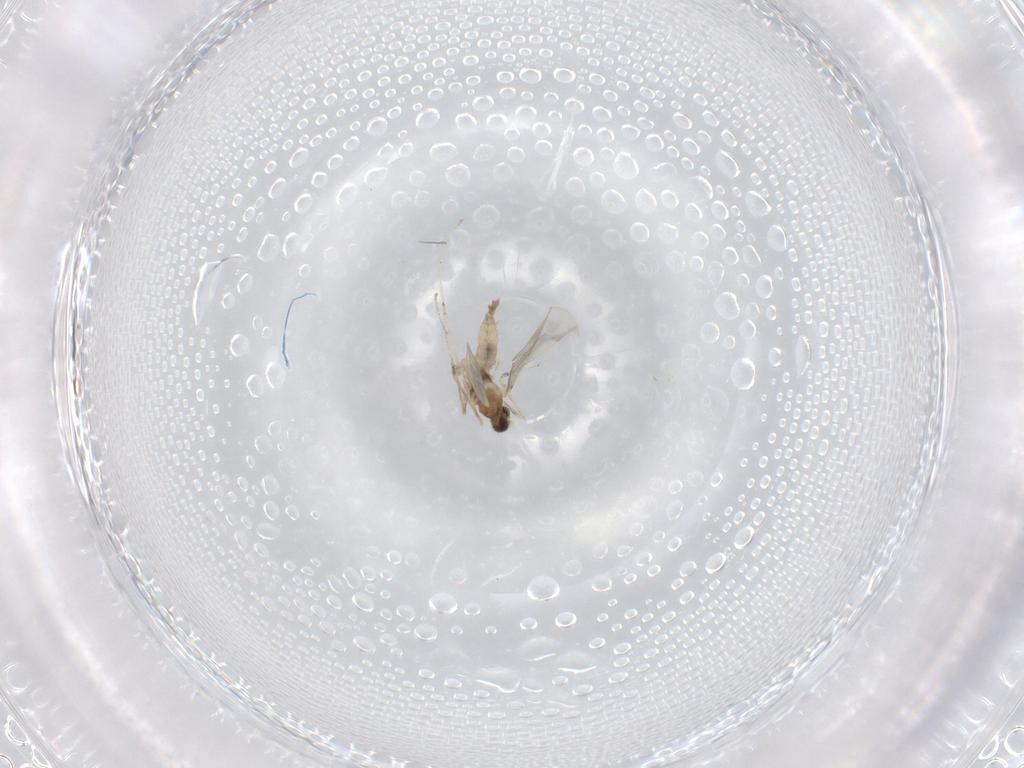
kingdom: Animalia
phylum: Arthropoda
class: Insecta
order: Diptera
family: Cecidomyiidae
